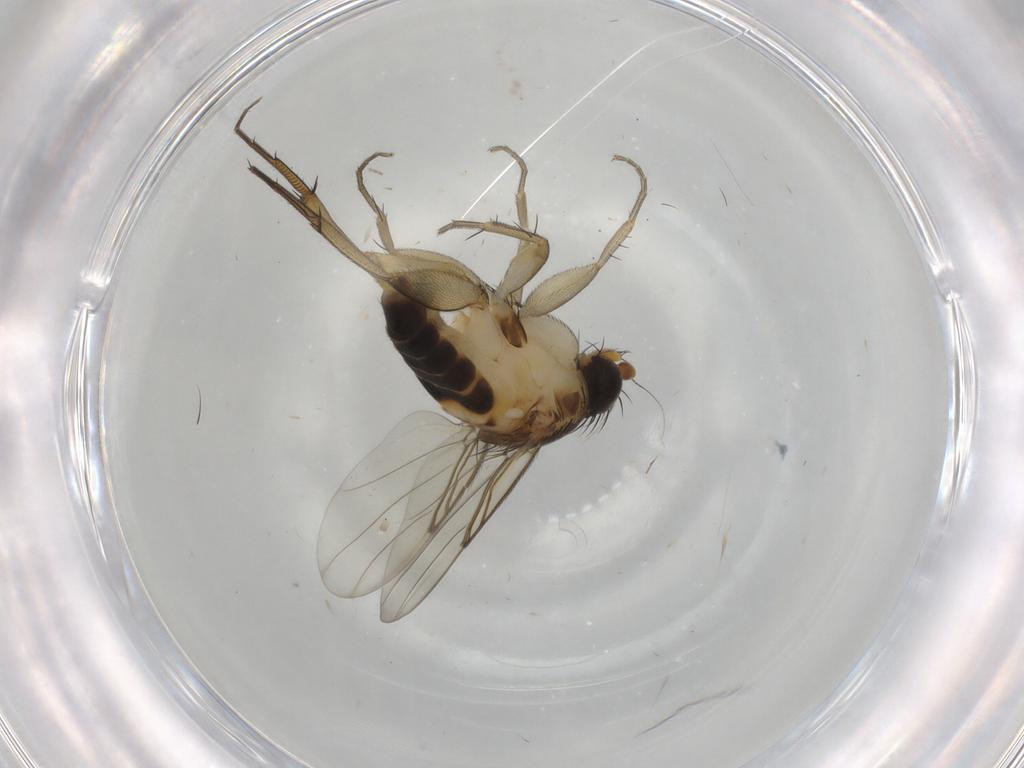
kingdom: Animalia
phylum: Arthropoda
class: Insecta
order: Diptera
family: Phoridae
